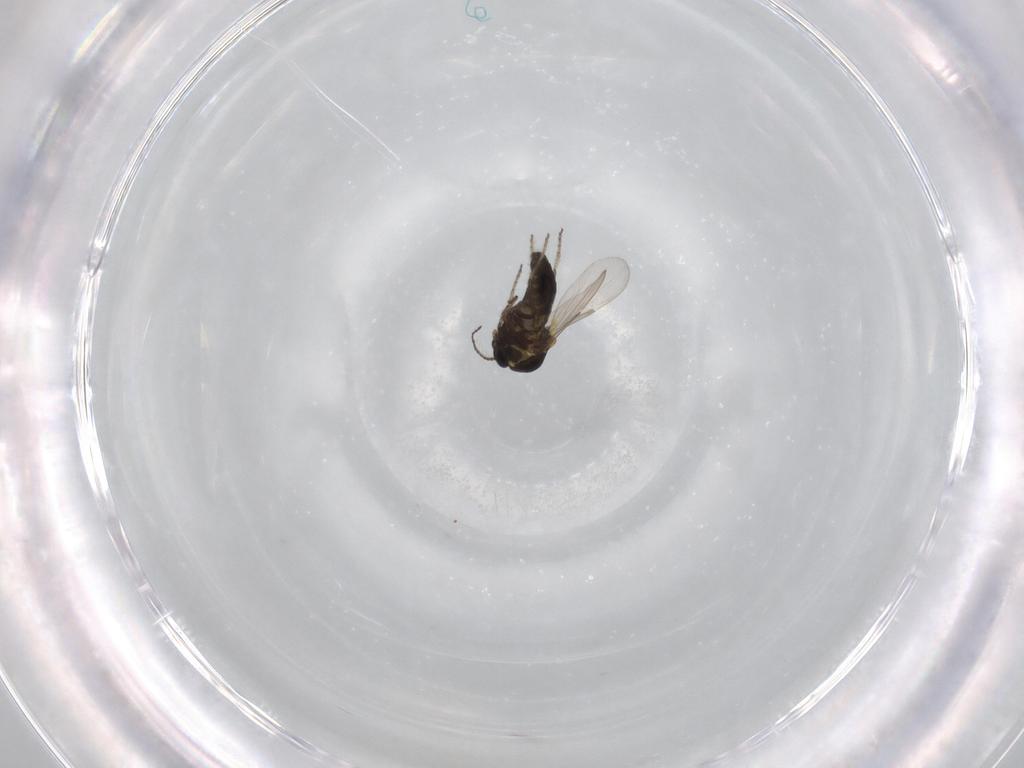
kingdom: Animalia
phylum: Arthropoda
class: Insecta
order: Diptera
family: Ceratopogonidae
